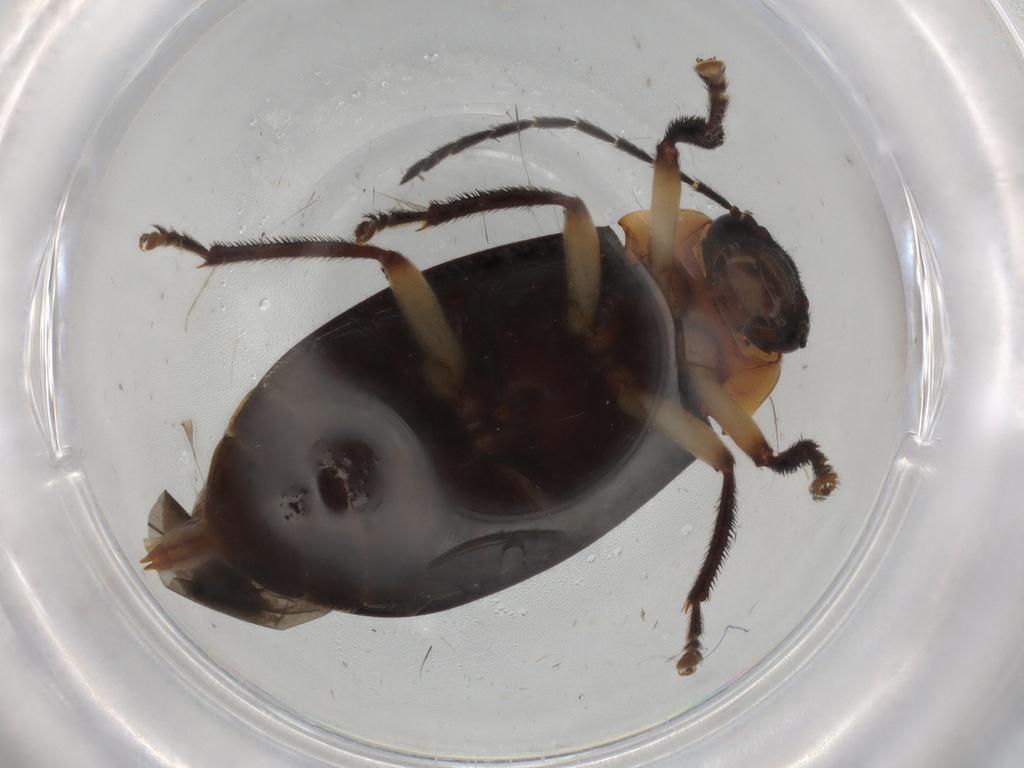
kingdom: Animalia
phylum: Arthropoda
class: Insecta
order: Coleoptera
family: Ptilodactylidae
